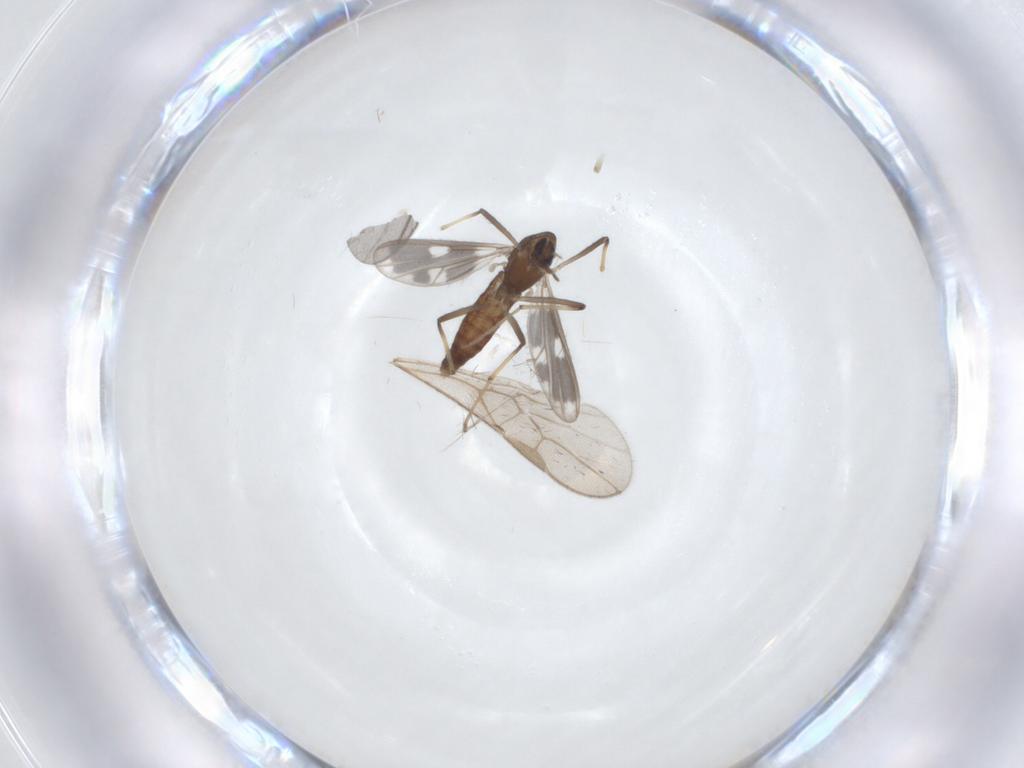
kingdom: Animalia
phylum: Arthropoda
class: Insecta
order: Diptera
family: Chironomidae
